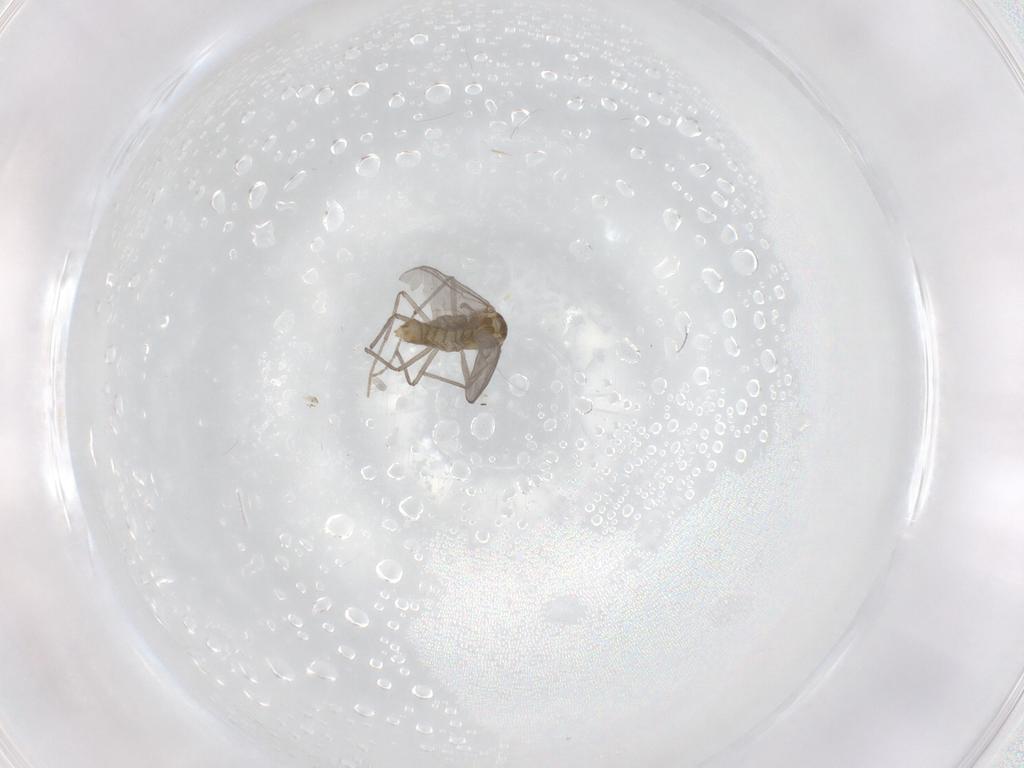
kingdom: Animalia
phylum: Arthropoda
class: Insecta
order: Diptera
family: Chironomidae
